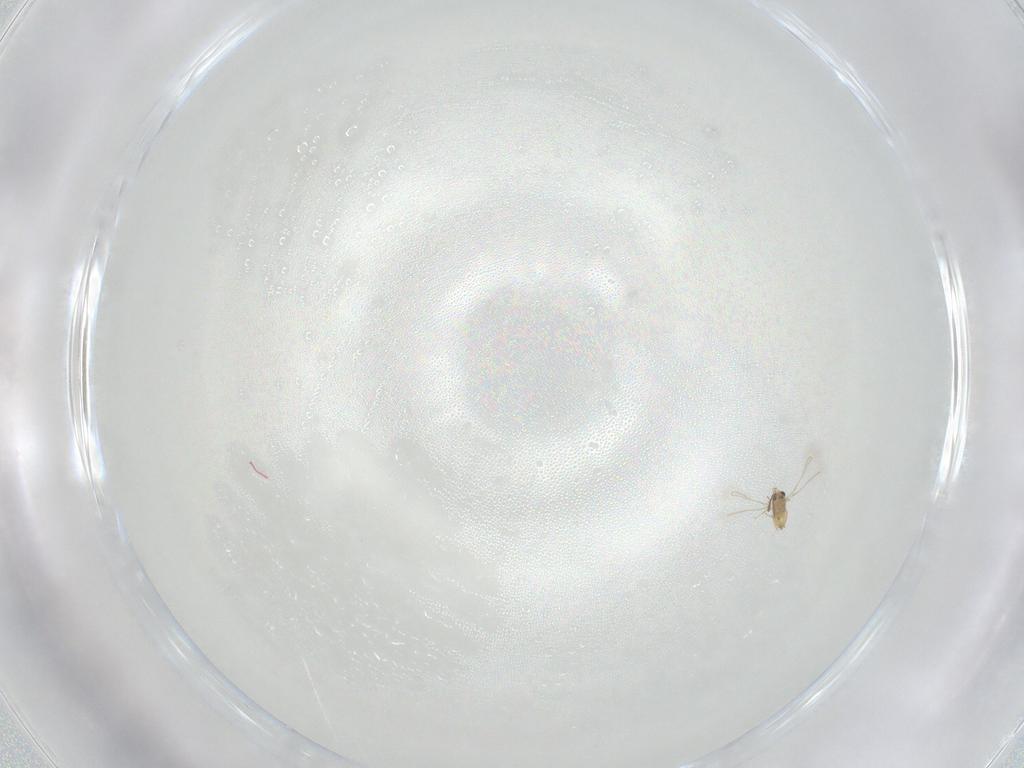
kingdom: Animalia
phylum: Arthropoda
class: Insecta
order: Hymenoptera
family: Mymaridae
